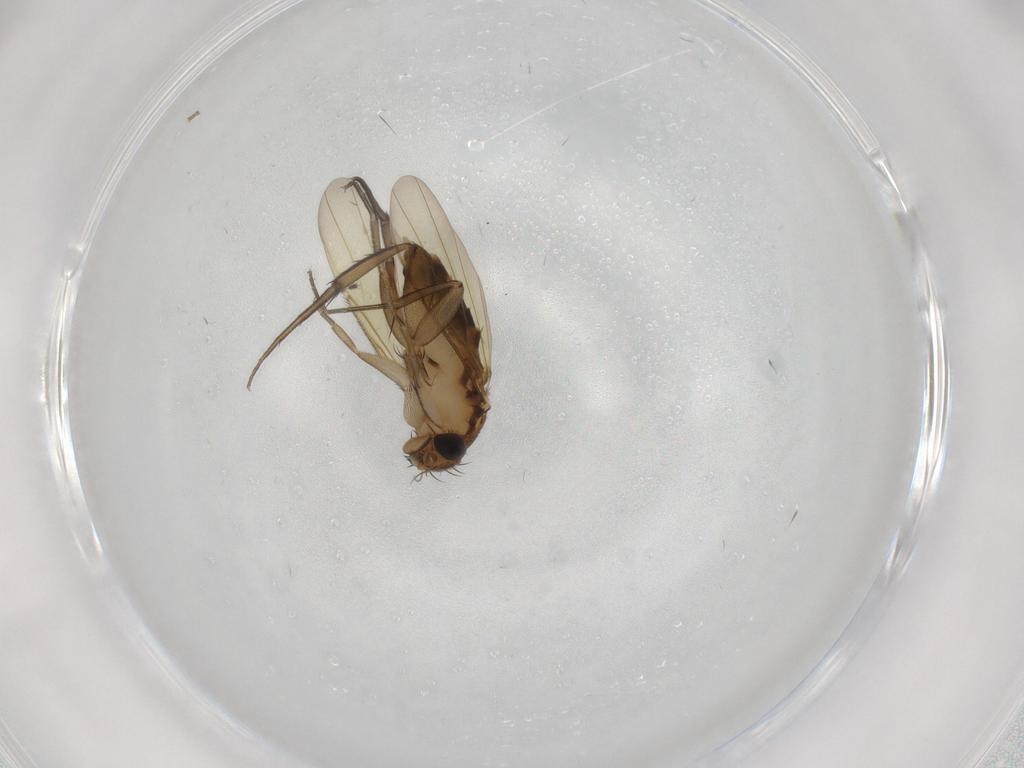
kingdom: Animalia
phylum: Arthropoda
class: Insecta
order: Diptera
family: Phoridae
